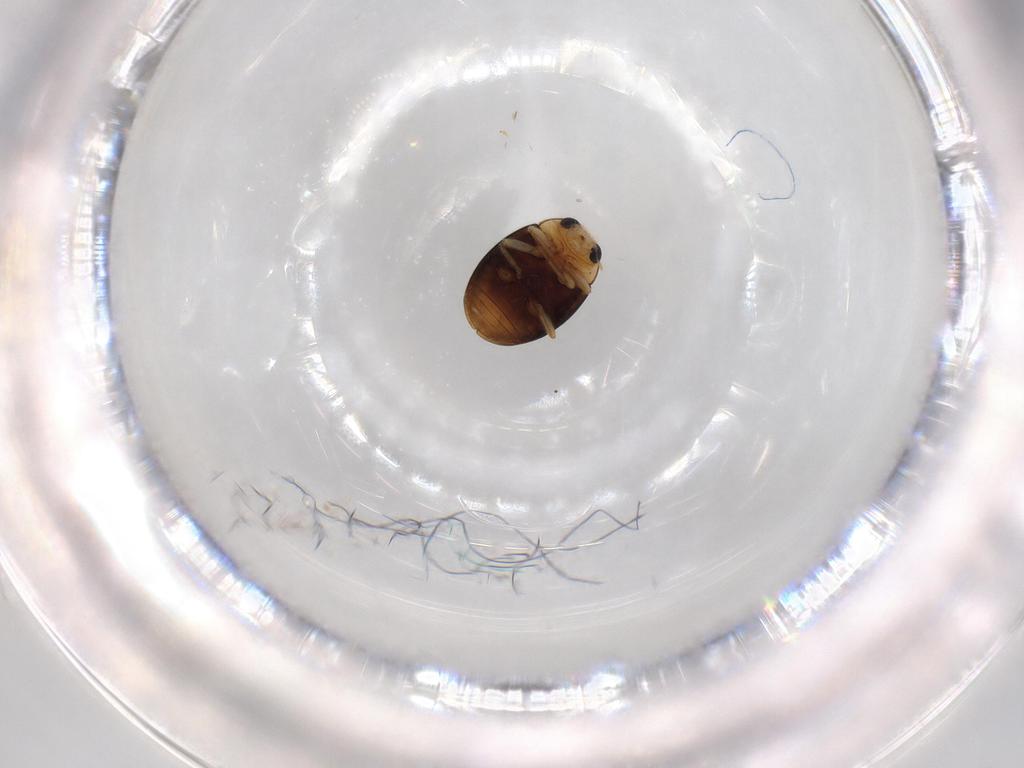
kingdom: Animalia
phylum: Arthropoda
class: Insecta
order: Coleoptera
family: Coccinellidae
